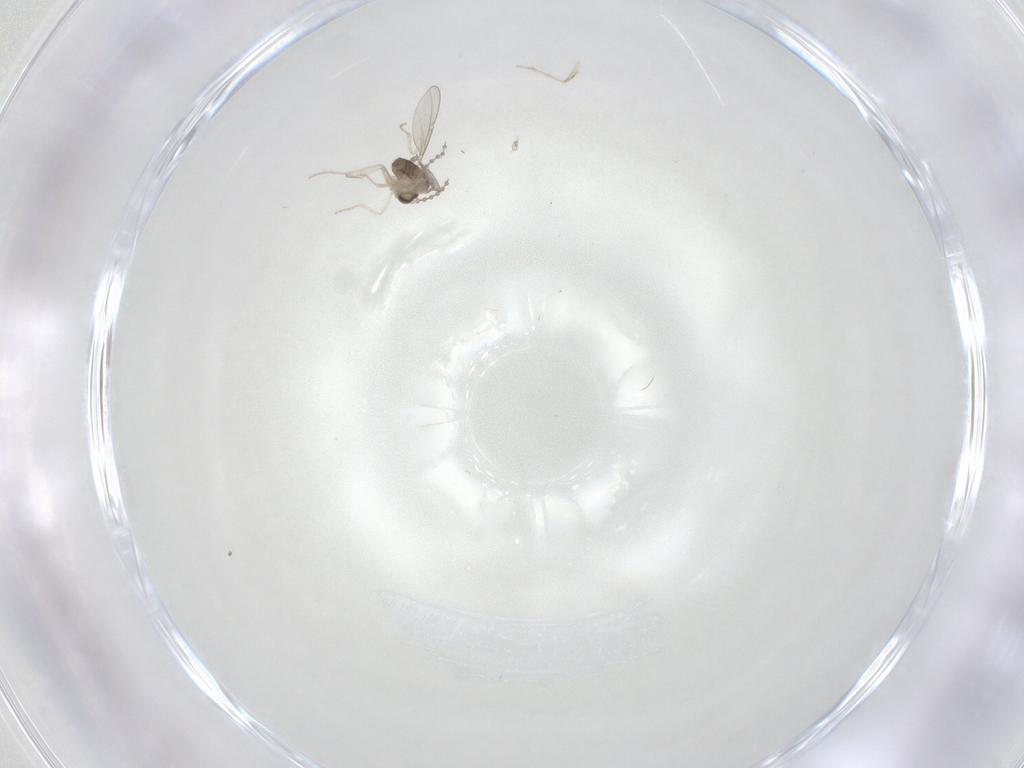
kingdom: Animalia
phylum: Arthropoda
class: Insecta
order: Diptera
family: Cecidomyiidae
